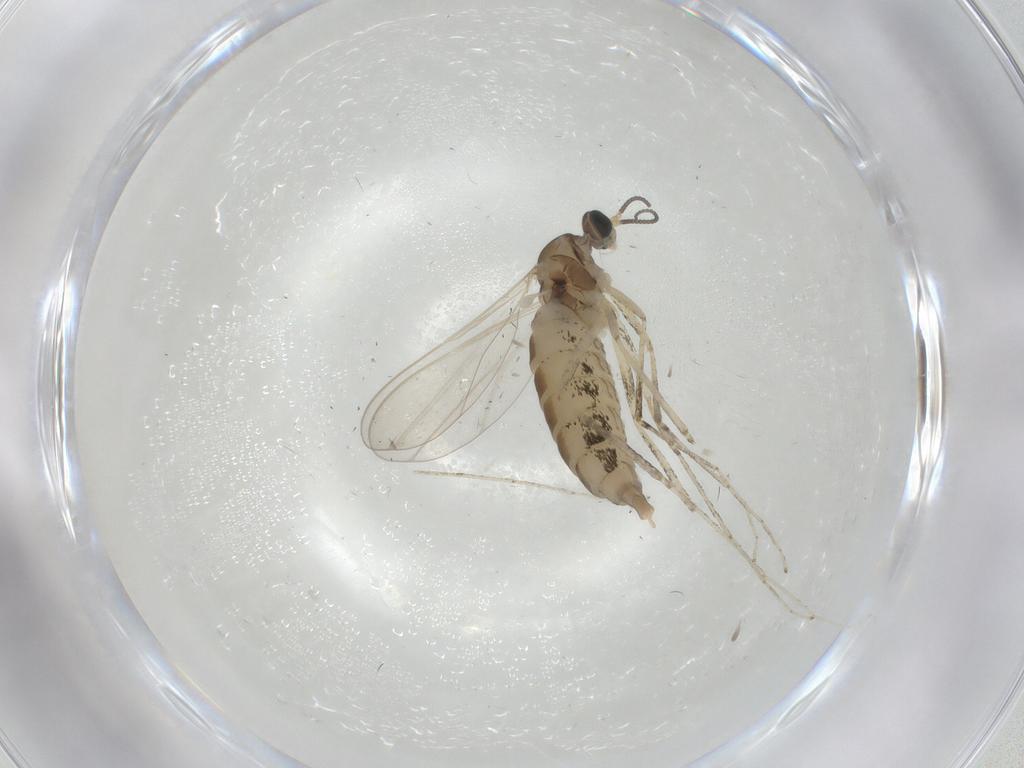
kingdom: Animalia
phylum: Arthropoda
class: Insecta
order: Diptera
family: Cecidomyiidae
